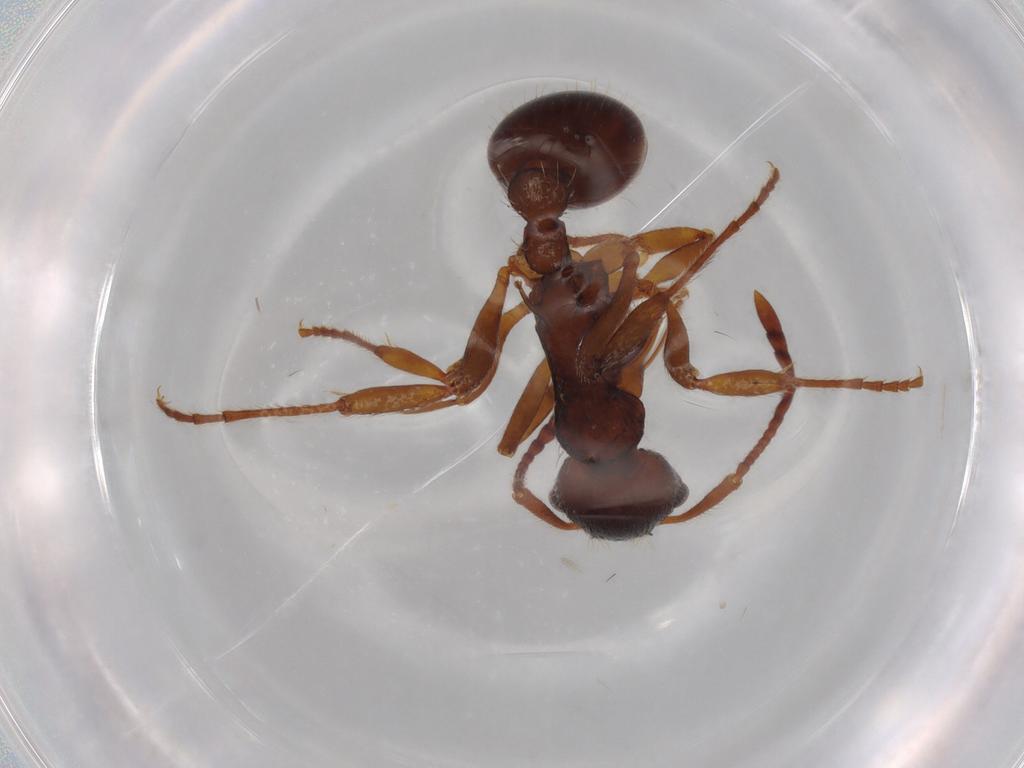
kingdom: Animalia
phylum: Arthropoda
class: Insecta
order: Hymenoptera
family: Formicidae
